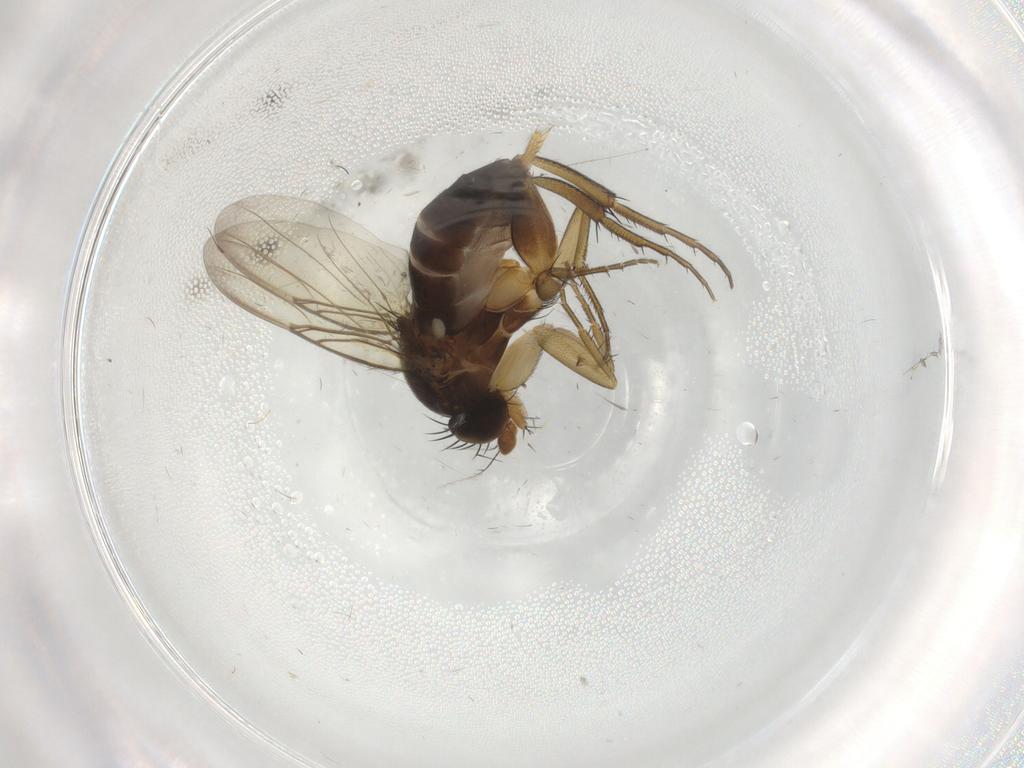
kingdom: Animalia
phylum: Arthropoda
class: Insecta
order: Diptera
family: Phoridae
